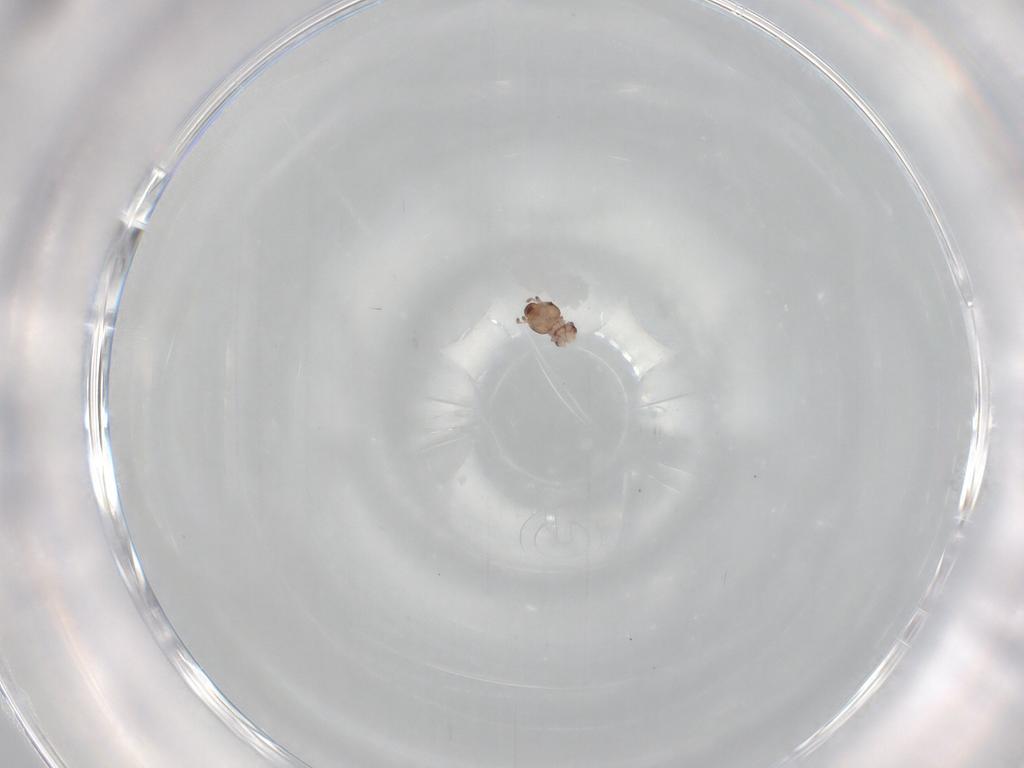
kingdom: Animalia
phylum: Arthropoda
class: Insecta
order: Psocodea
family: Liposcelididae
